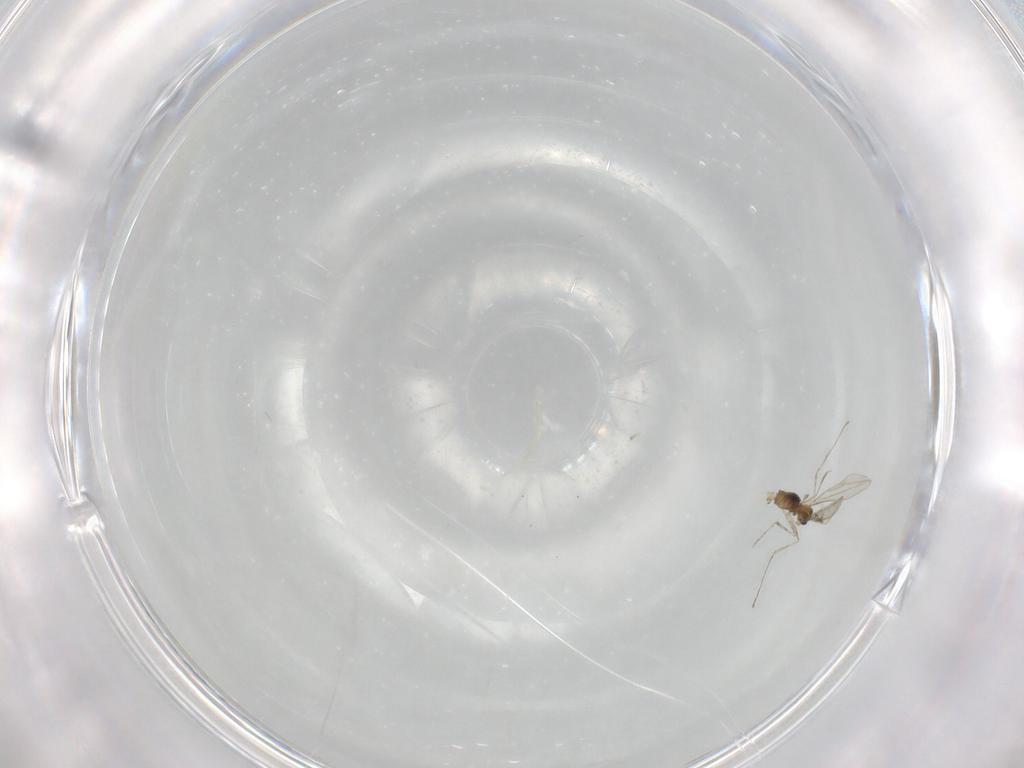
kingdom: Animalia
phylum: Arthropoda
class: Insecta
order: Diptera
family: Cecidomyiidae
